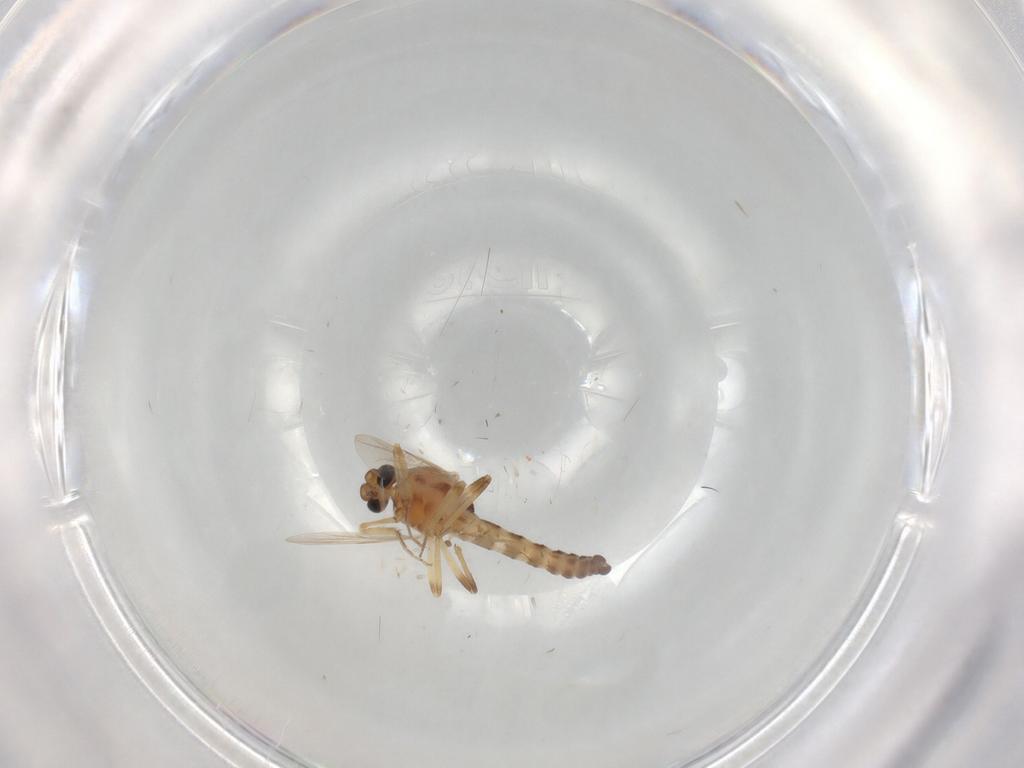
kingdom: Animalia
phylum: Arthropoda
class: Insecta
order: Diptera
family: Ceratopogonidae
